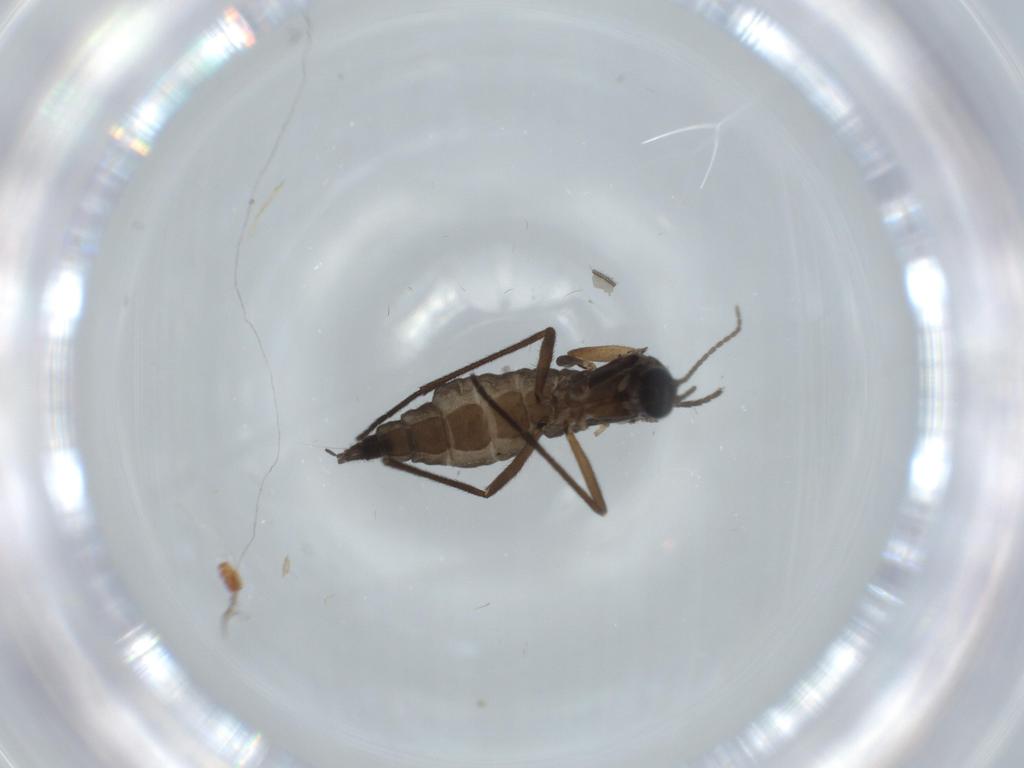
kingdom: Animalia
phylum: Arthropoda
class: Insecta
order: Diptera
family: Sciaridae
